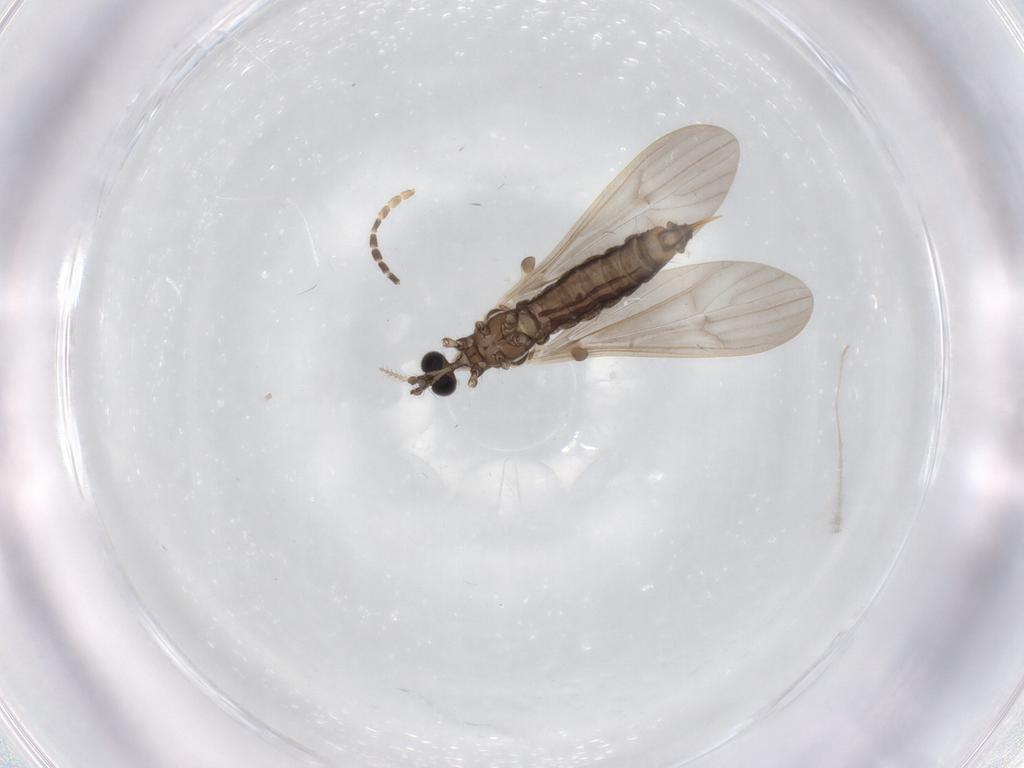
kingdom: Animalia
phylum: Arthropoda
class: Insecta
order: Diptera
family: Limoniidae
